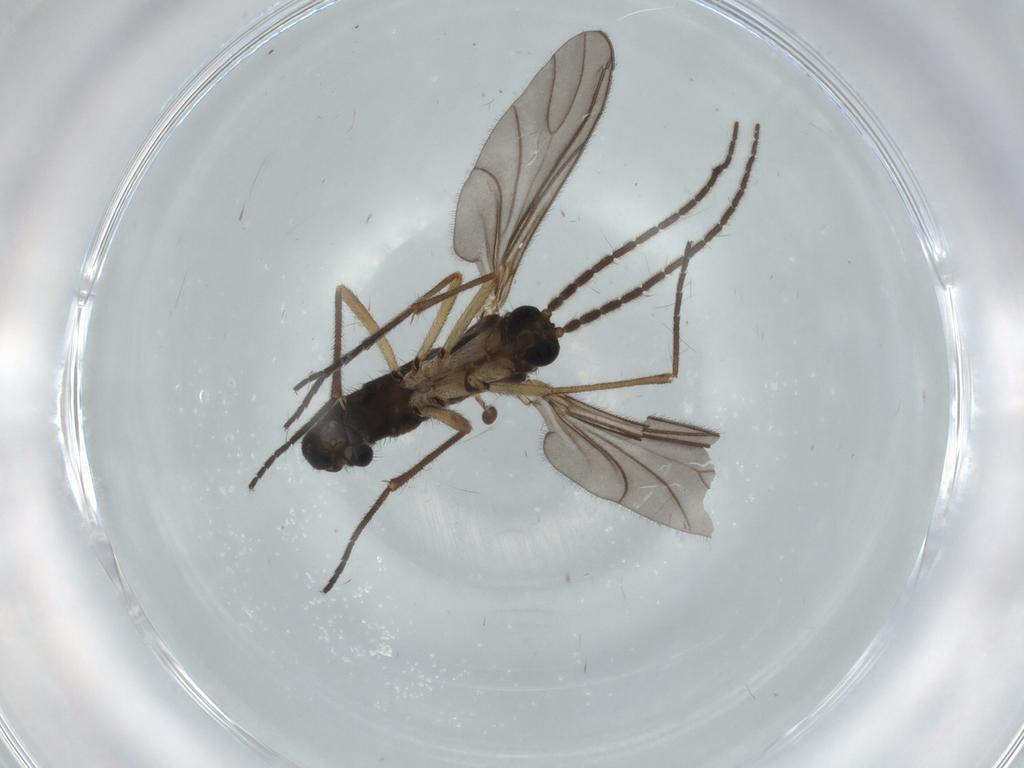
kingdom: Animalia
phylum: Arthropoda
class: Insecta
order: Diptera
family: Sciaridae
